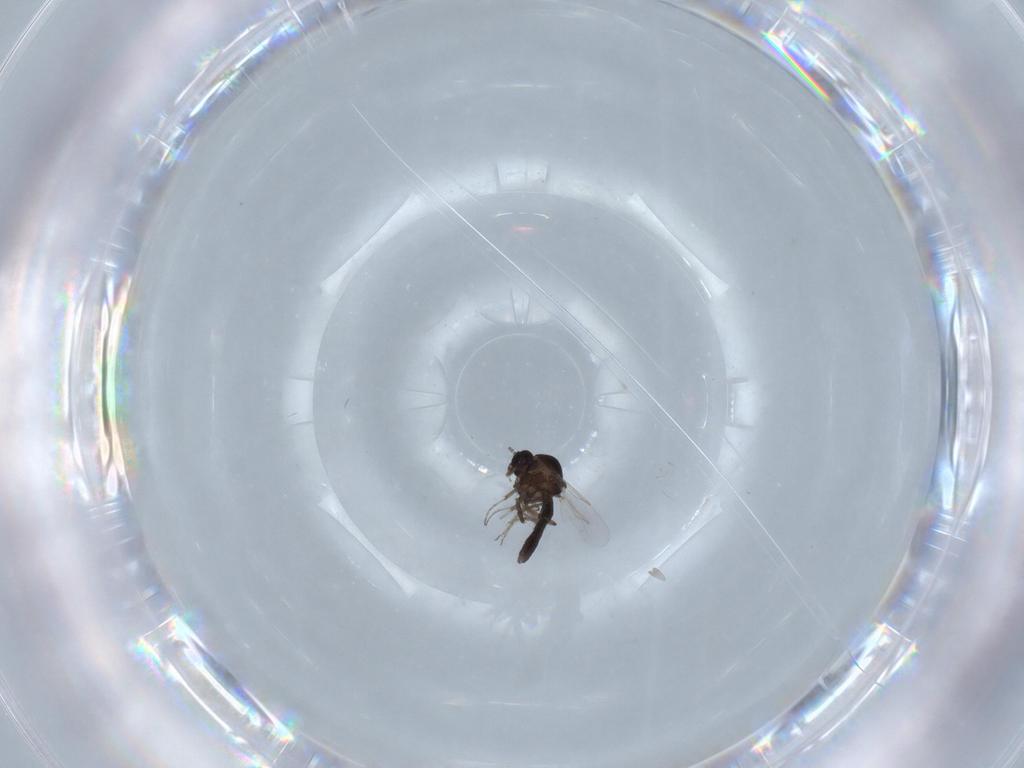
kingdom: Animalia
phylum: Arthropoda
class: Insecta
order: Diptera
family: Psychodidae
